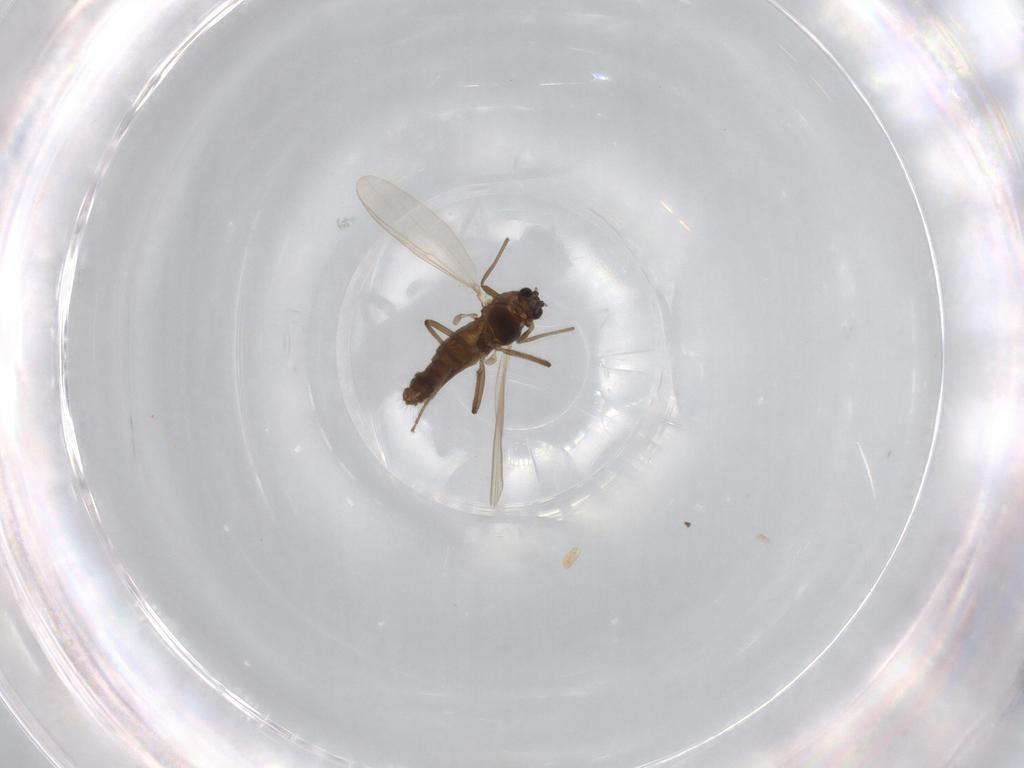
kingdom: Animalia
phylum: Arthropoda
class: Insecta
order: Diptera
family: Chironomidae
